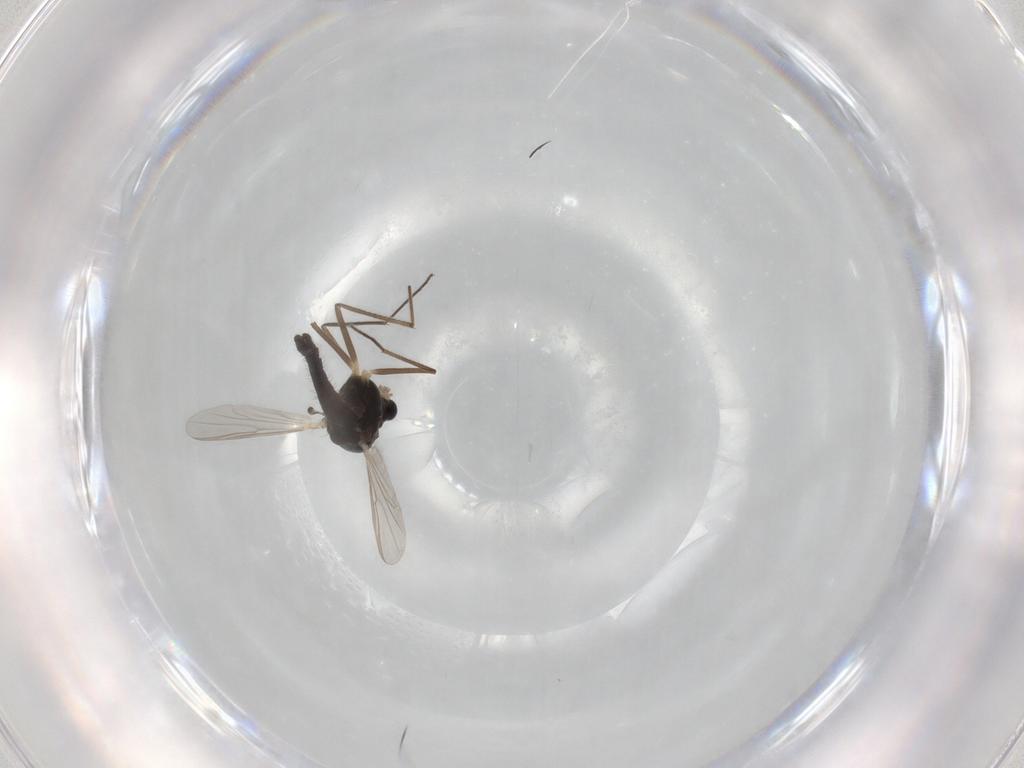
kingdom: Animalia
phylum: Arthropoda
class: Insecta
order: Diptera
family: Chironomidae
